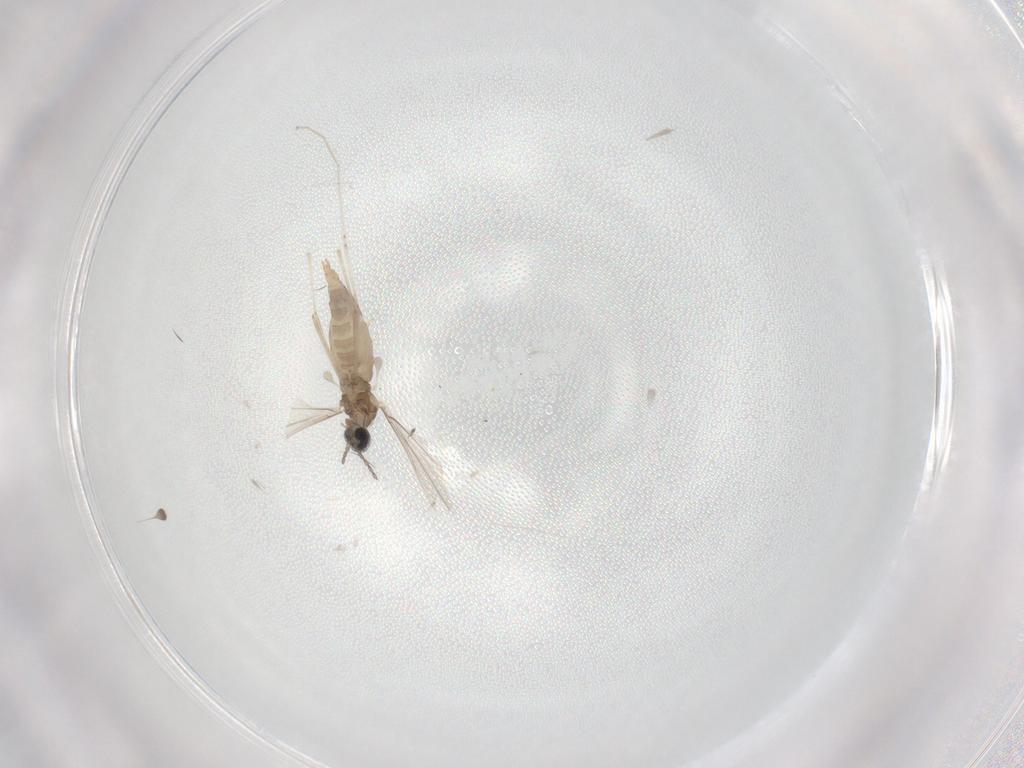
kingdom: Animalia
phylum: Arthropoda
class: Insecta
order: Diptera
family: Cecidomyiidae
